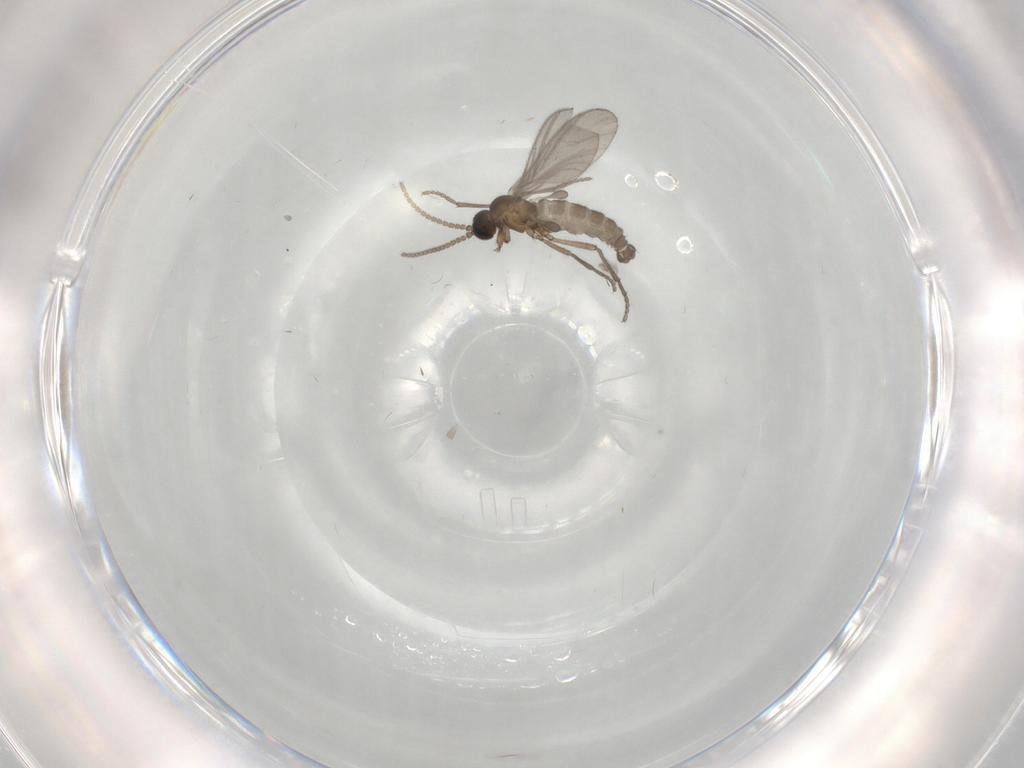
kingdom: Animalia
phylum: Arthropoda
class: Insecta
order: Diptera
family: Sciaridae
